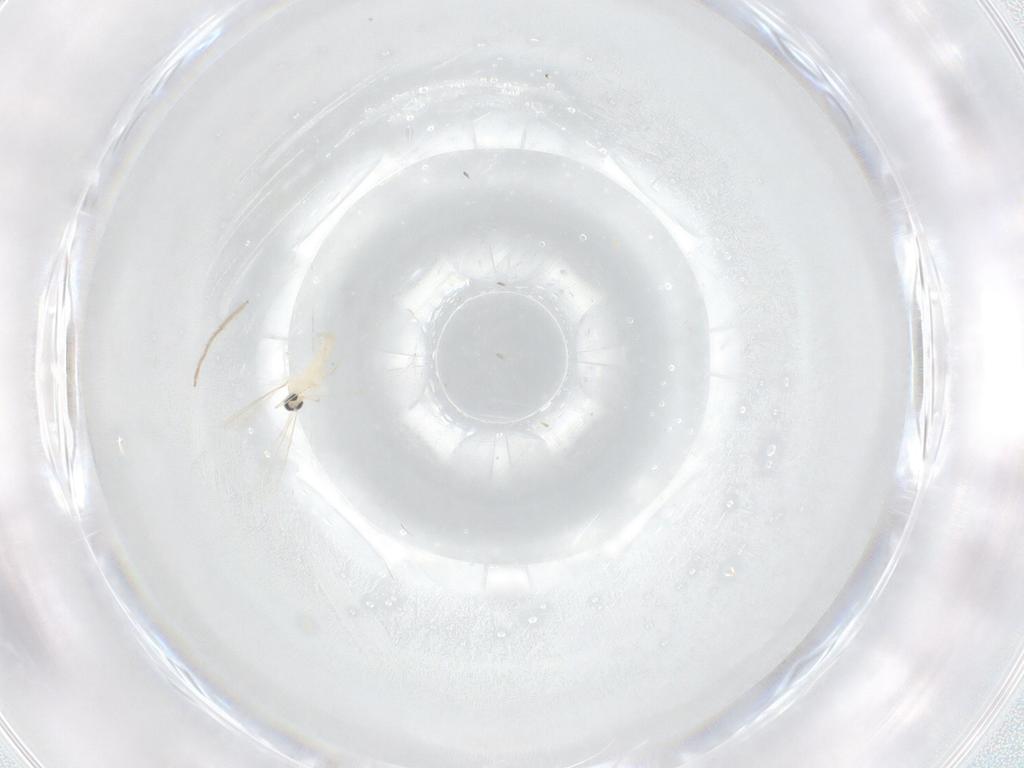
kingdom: Animalia
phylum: Arthropoda
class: Insecta
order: Diptera
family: Cecidomyiidae
